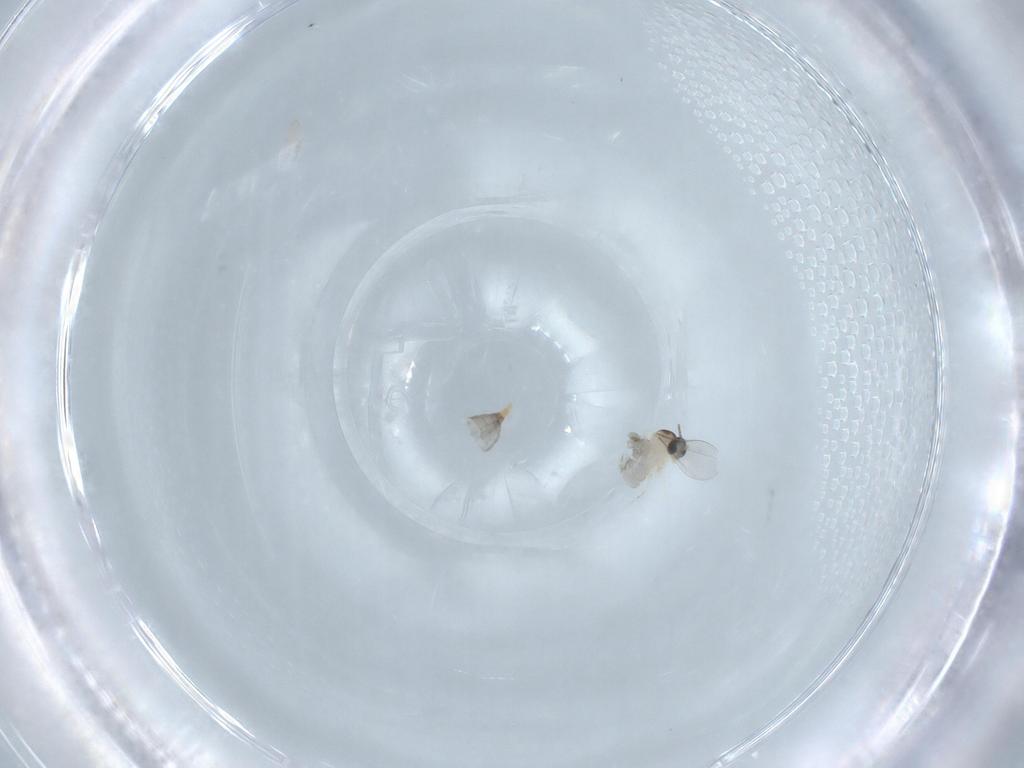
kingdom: Animalia
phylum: Arthropoda
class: Insecta
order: Diptera
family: Cecidomyiidae
